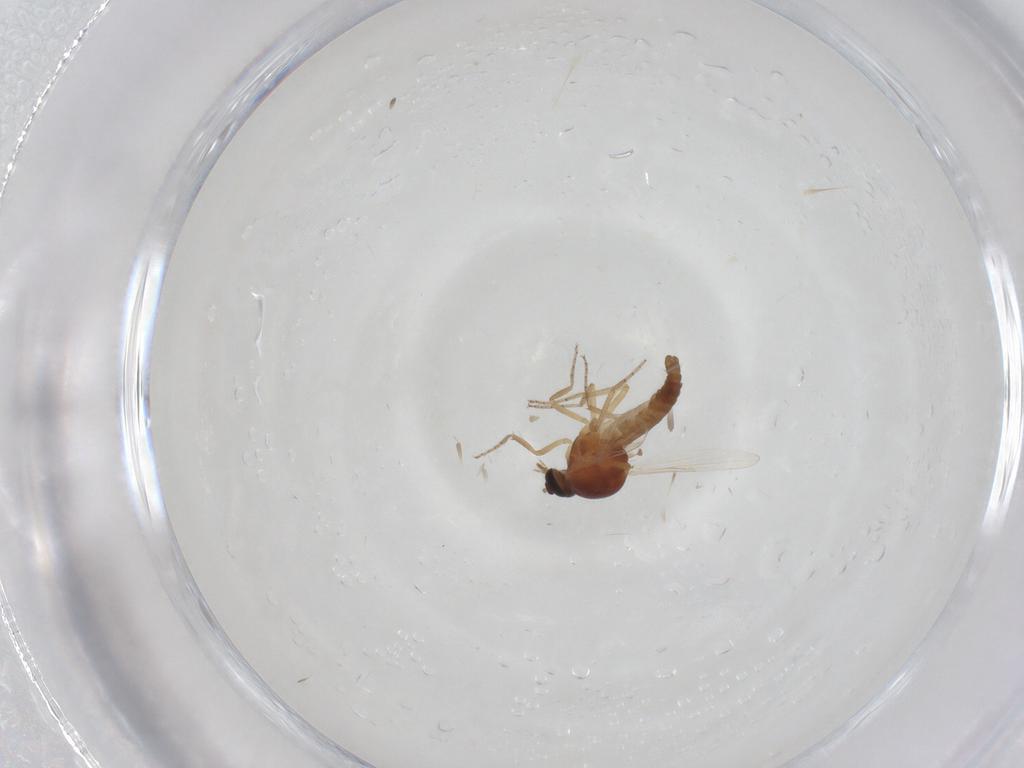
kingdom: Animalia
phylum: Arthropoda
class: Insecta
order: Diptera
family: Ceratopogonidae
